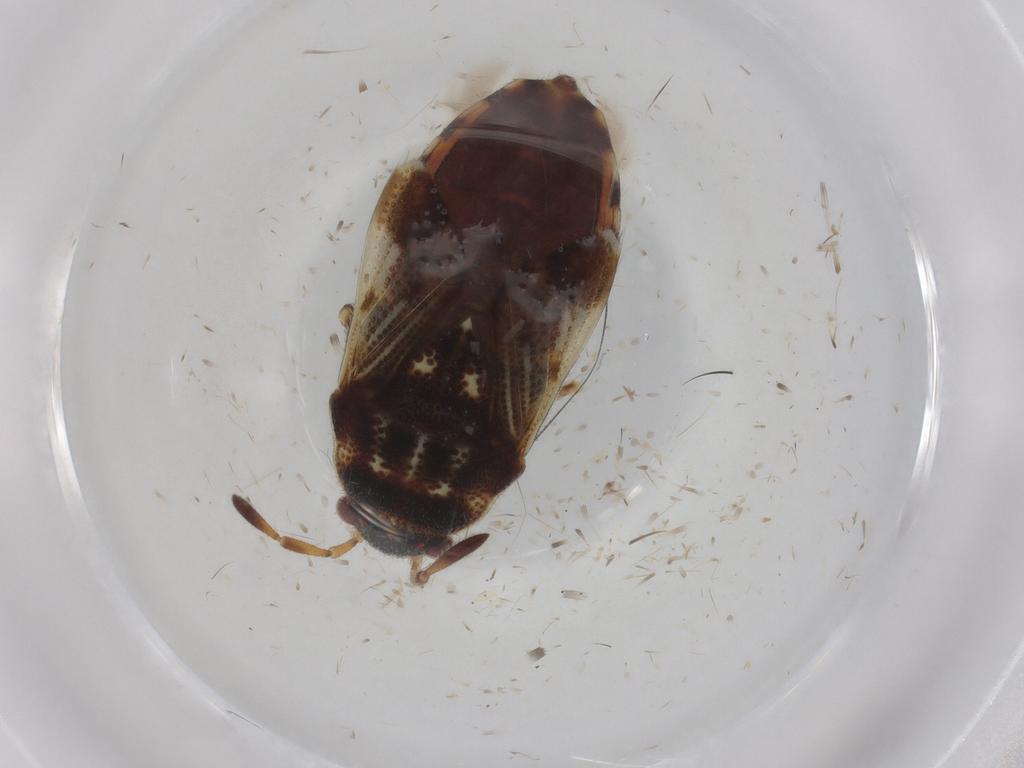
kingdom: Animalia
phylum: Arthropoda
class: Insecta
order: Hemiptera
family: Lygaeidae
